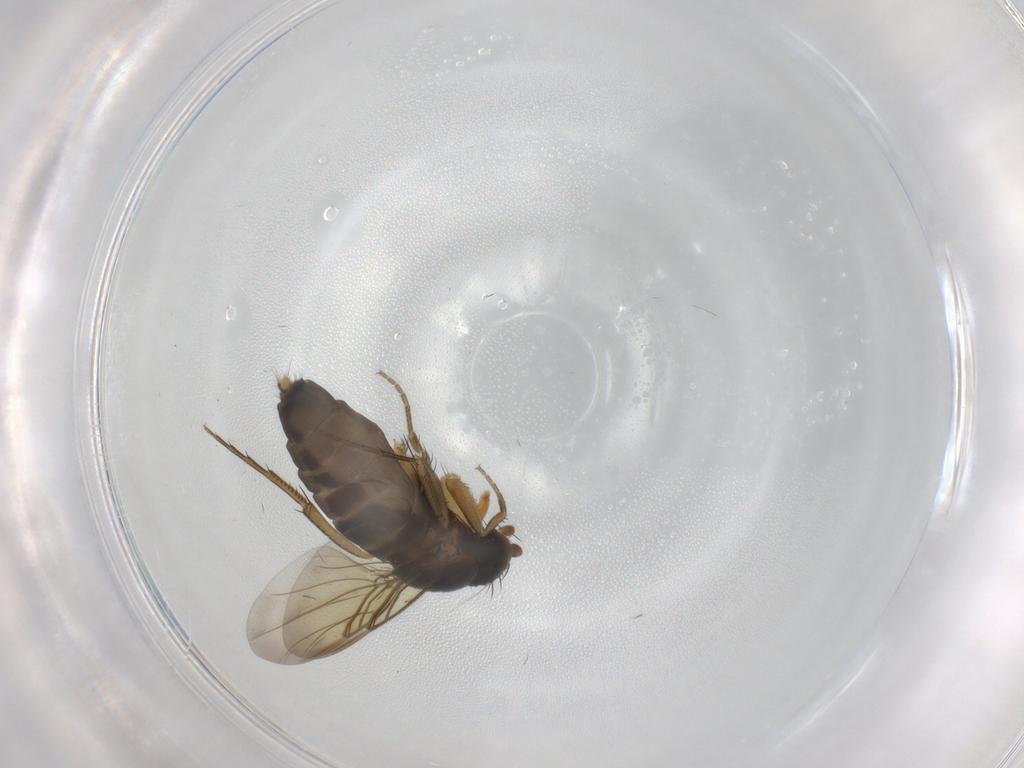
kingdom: Animalia
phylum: Arthropoda
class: Insecta
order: Diptera
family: Phoridae
